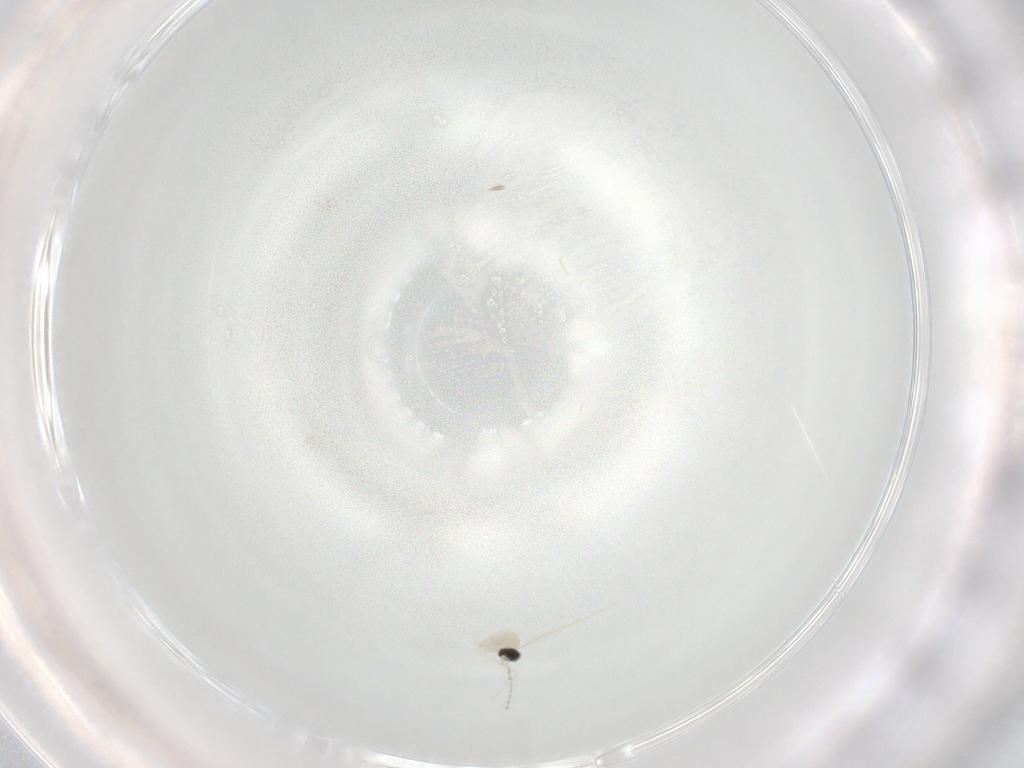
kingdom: Animalia
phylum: Arthropoda
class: Insecta
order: Diptera
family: Cecidomyiidae
